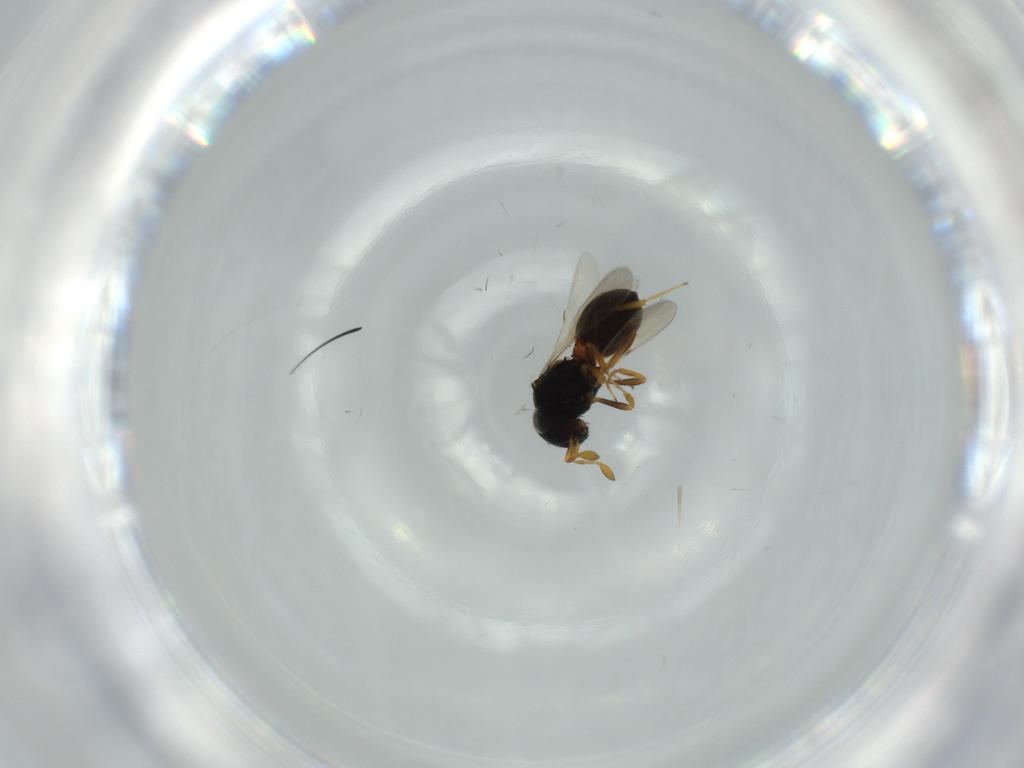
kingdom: Animalia
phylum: Arthropoda
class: Insecta
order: Hymenoptera
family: Scelionidae
